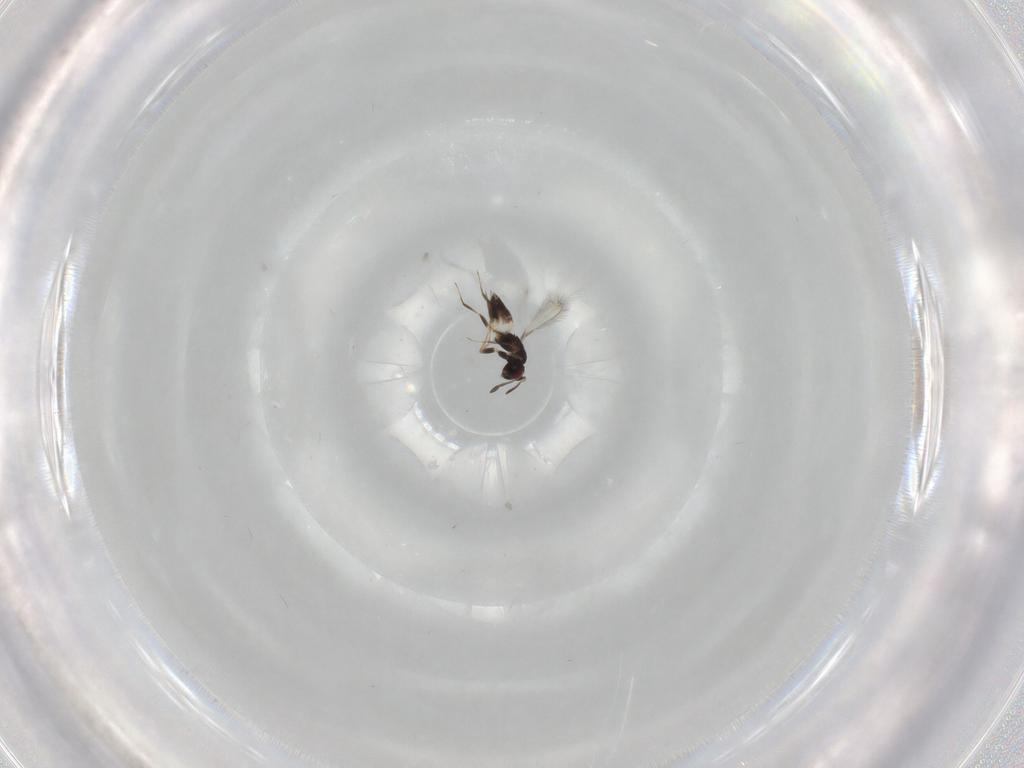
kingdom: Animalia
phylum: Arthropoda
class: Insecta
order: Hymenoptera
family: Mymaridae
